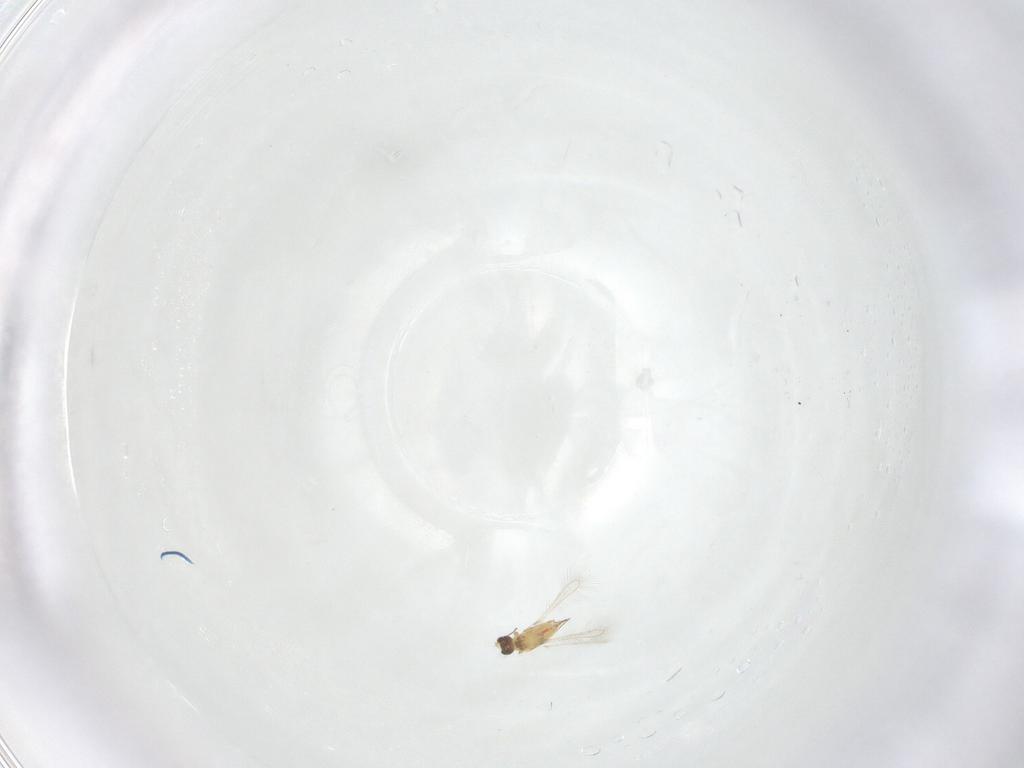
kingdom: Animalia
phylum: Arthropoda
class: Insecta
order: Hymenoptera
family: Mymaridae
